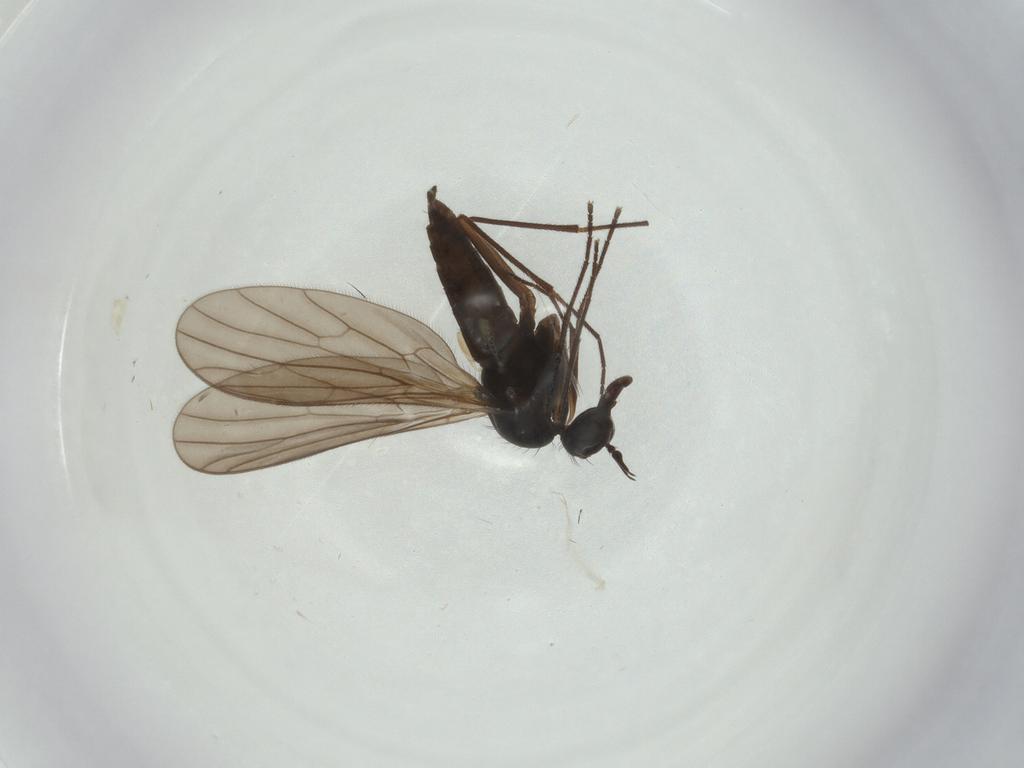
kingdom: Animalia
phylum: Arthropoda
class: Insecta
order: Diptera
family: Empididae
